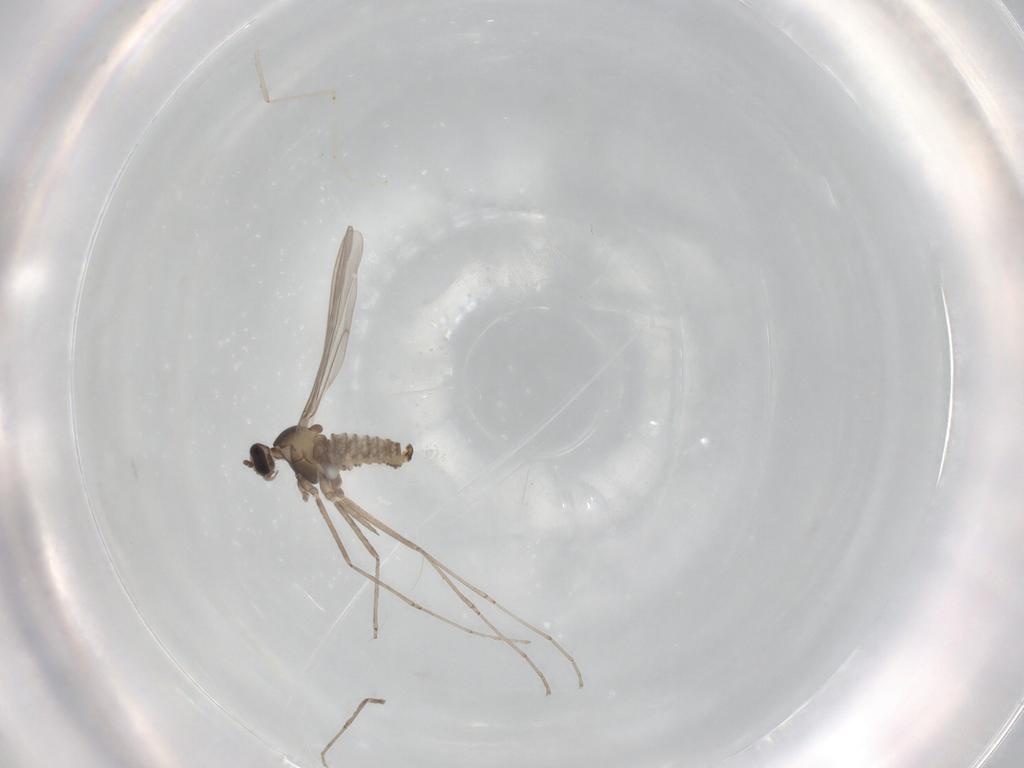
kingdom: Animalia
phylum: Arthropoda
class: Insecta
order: Diptera
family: Cecidomyiidae
